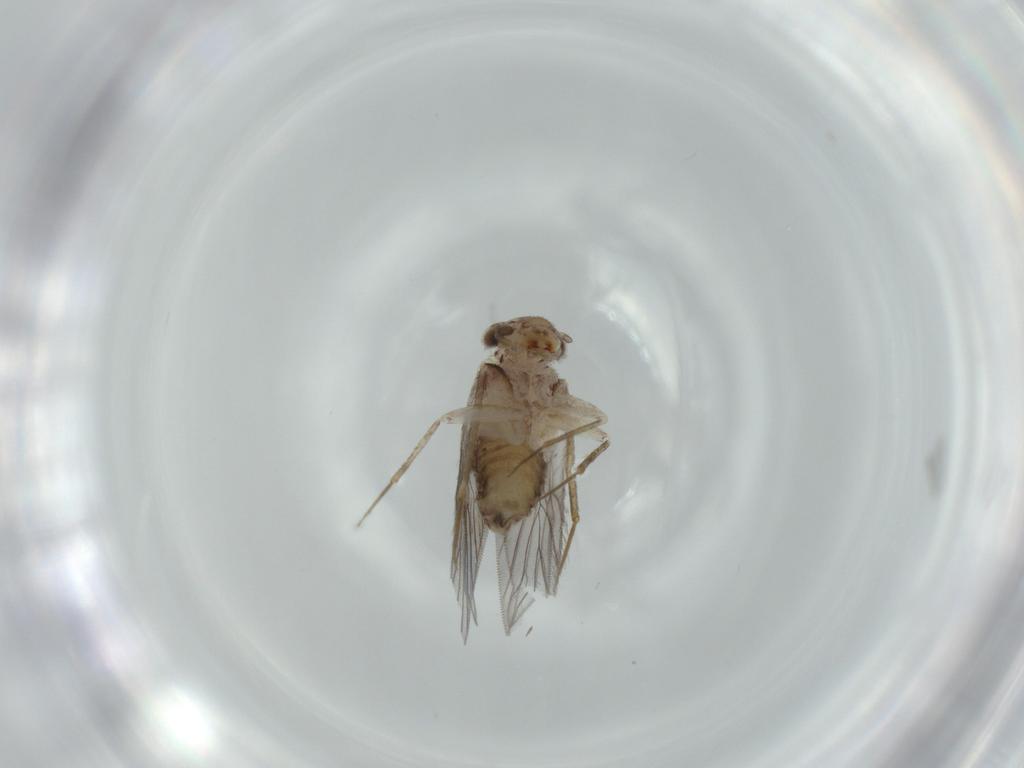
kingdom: Animalia
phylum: Arthropoda
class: Insecta
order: Psocodea
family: Lepidopsocidae
